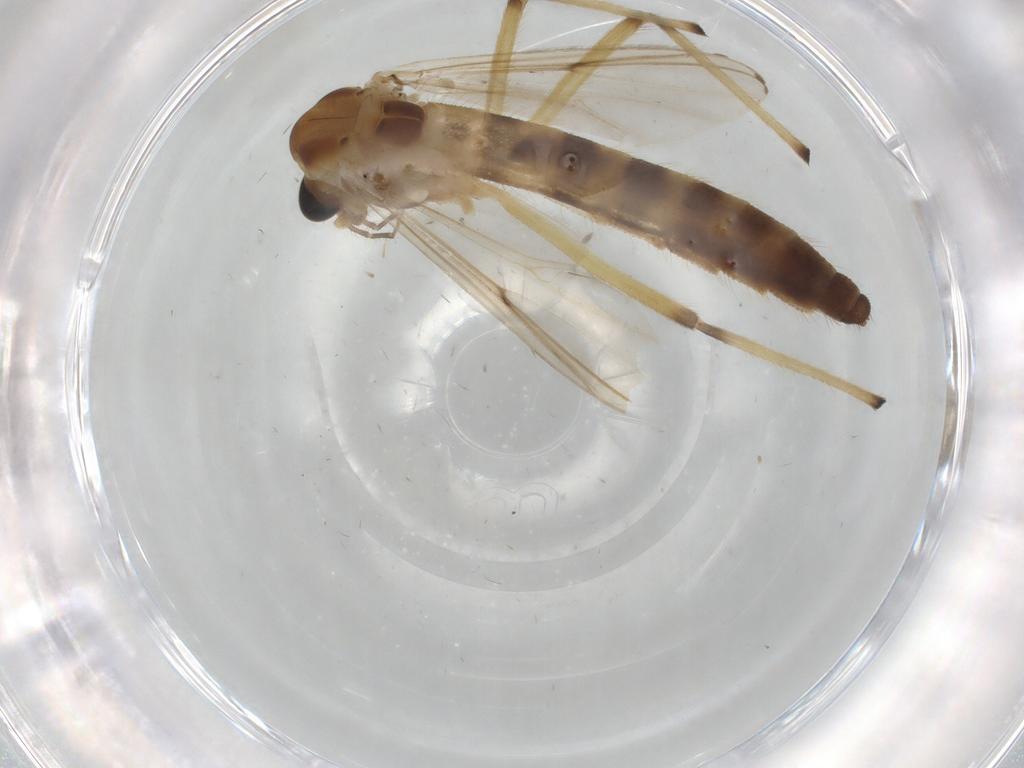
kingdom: Animalia
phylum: Arthropoda
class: Insecta
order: Diptera
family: Chironomidae
